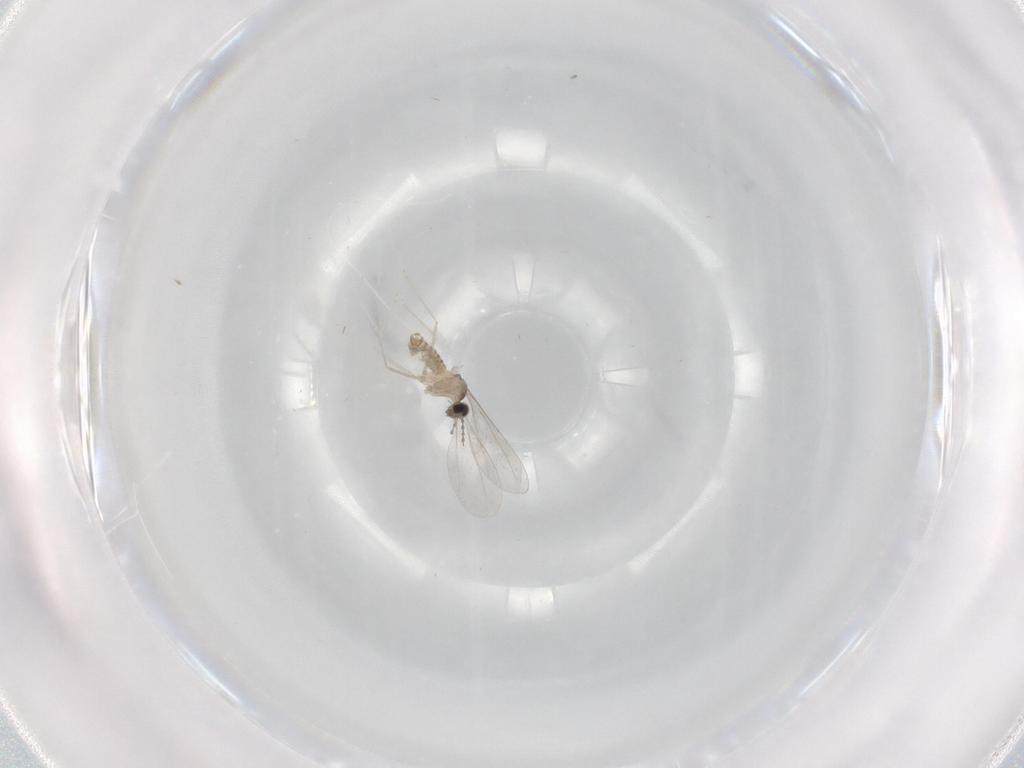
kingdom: Animalia
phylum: Arthropoda
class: Insecta
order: Diptera
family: Cecidomyiidae
